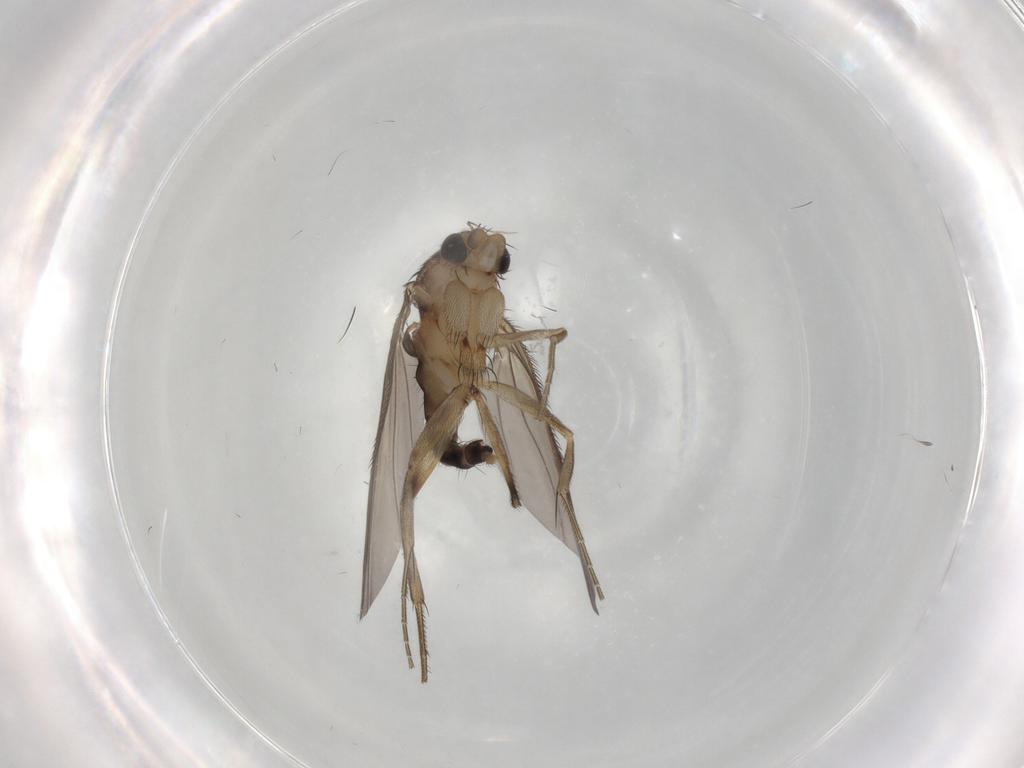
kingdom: Animalia
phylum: Arthropoda
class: Insecta
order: Diptera
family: Phoridae
